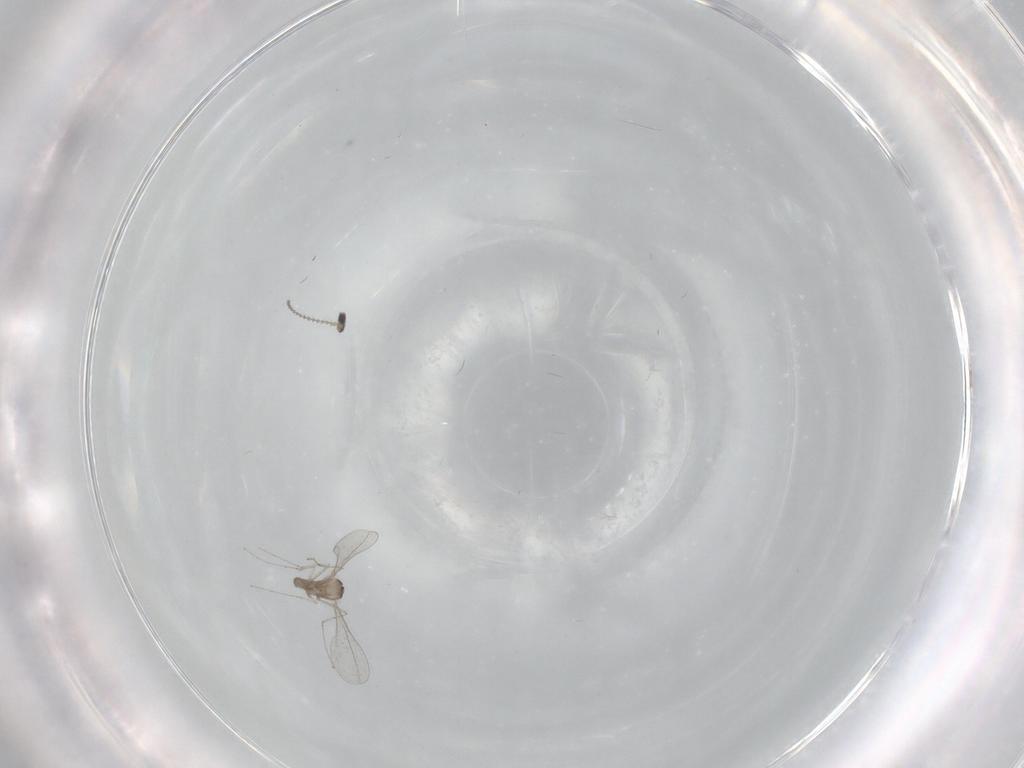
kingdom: Animalia
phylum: Arthropoda
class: Insecta
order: Diptera
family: Cecidomyiidae
